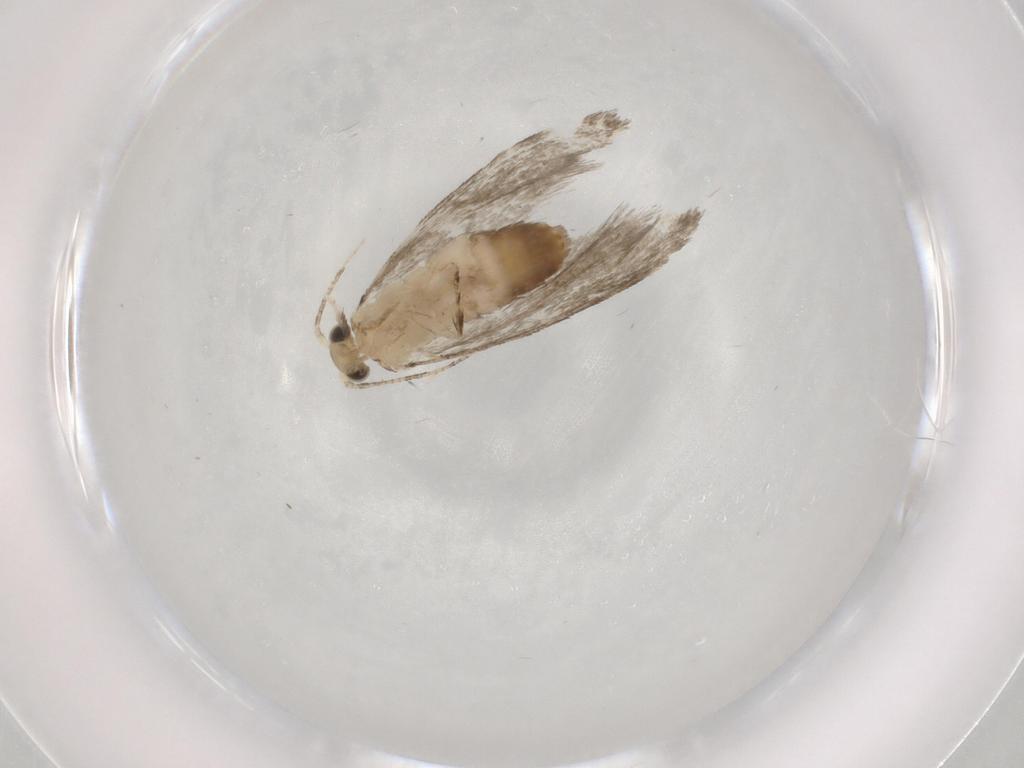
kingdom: Animalia
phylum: Arthropoda
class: Insecta
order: Lepidoptera
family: Tineidae
